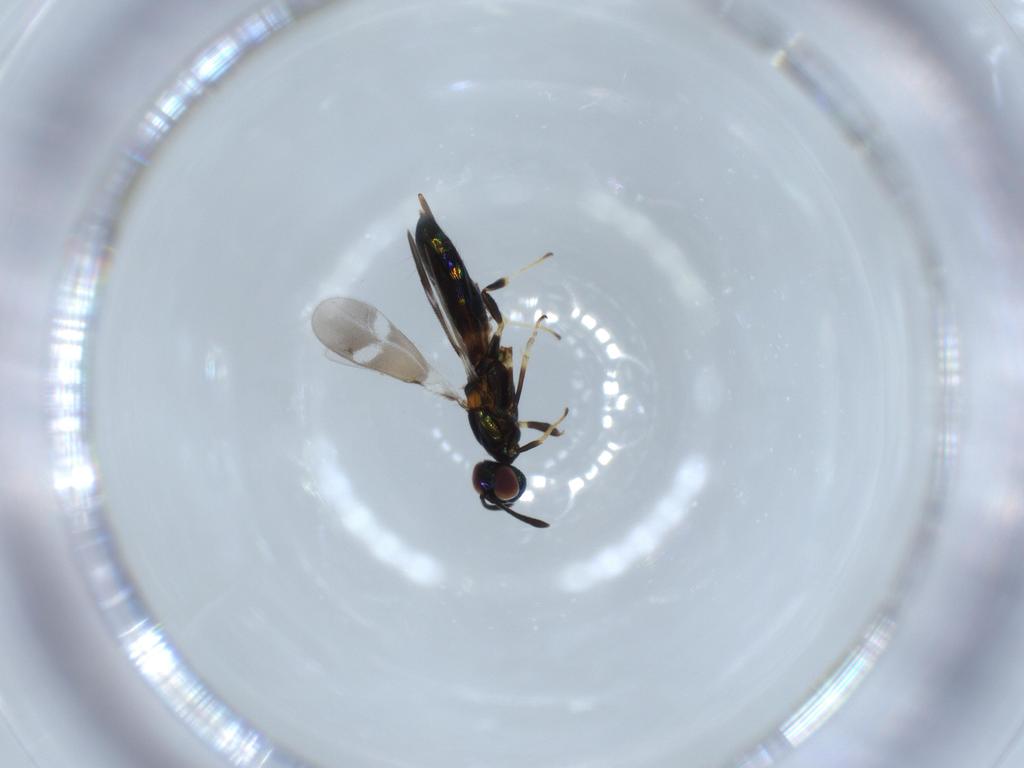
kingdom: Animalia
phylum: Arthropoda
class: Insecta
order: Hymenoptera
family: Eupelmidae
